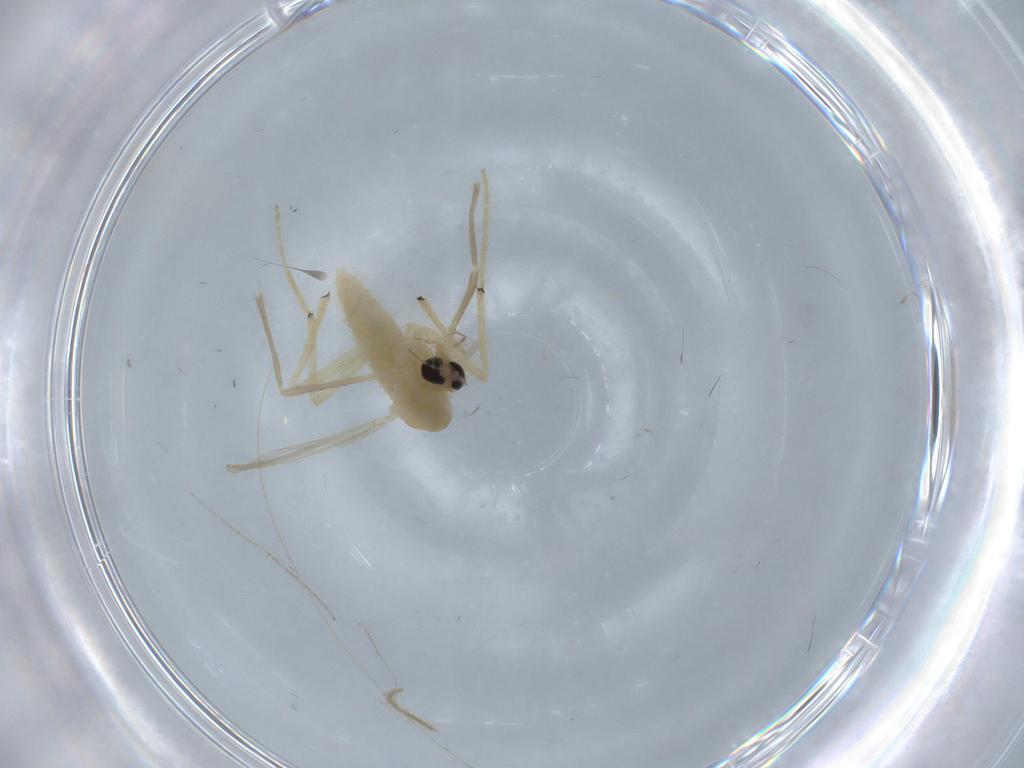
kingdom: Animalia
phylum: Arthropoda
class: Insecta
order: Diptera
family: Cecidomyiidae
